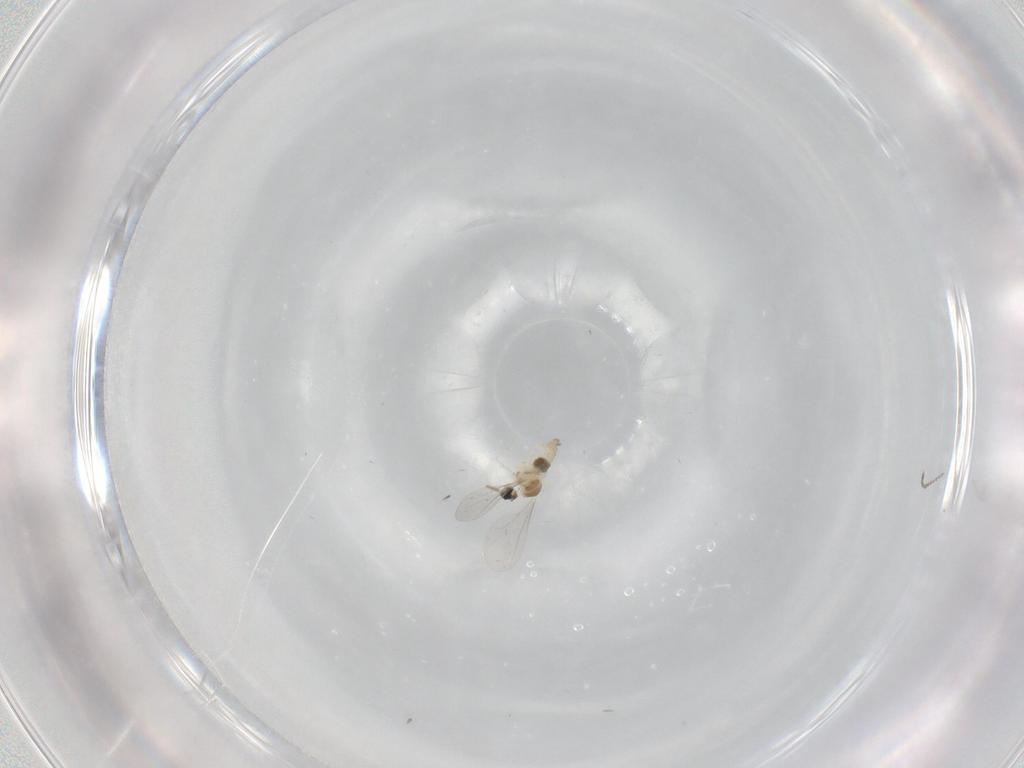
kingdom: Animalia
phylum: Arthropoda
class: Insecta
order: Diptera
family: Cecidomyiidae
